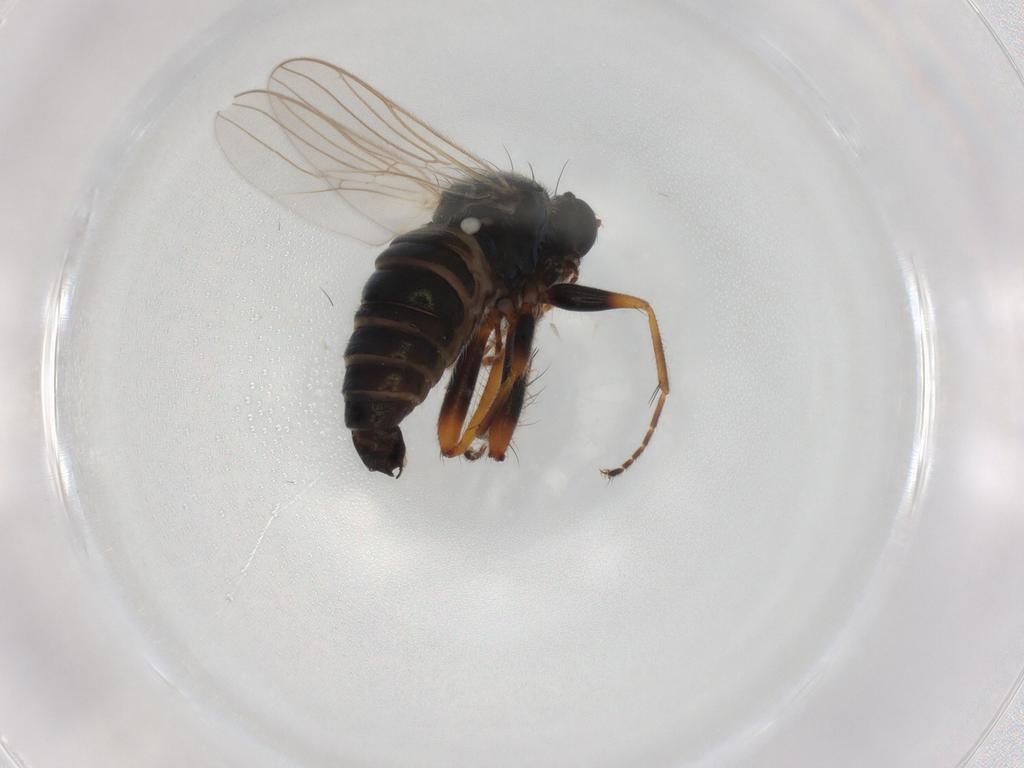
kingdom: Animalia
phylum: Arthropoda
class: Insecta
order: Diptera
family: Hybotidae
